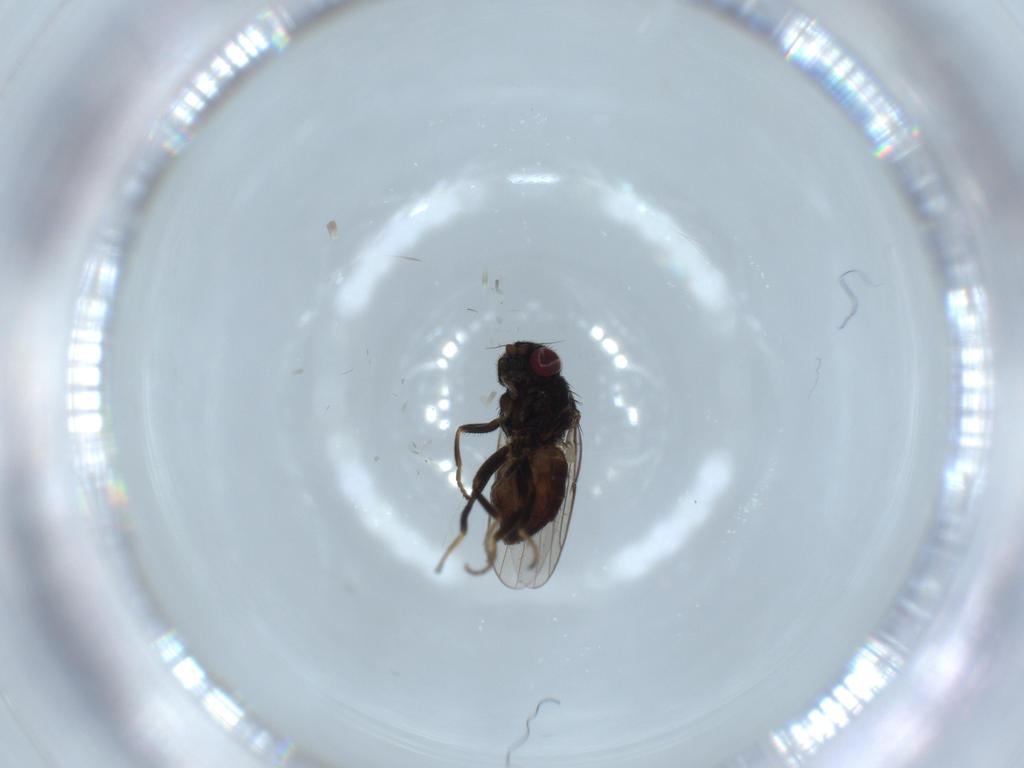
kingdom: Animalia
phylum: Arthropoda
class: Insecta
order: Diptera
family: Chloropidae
